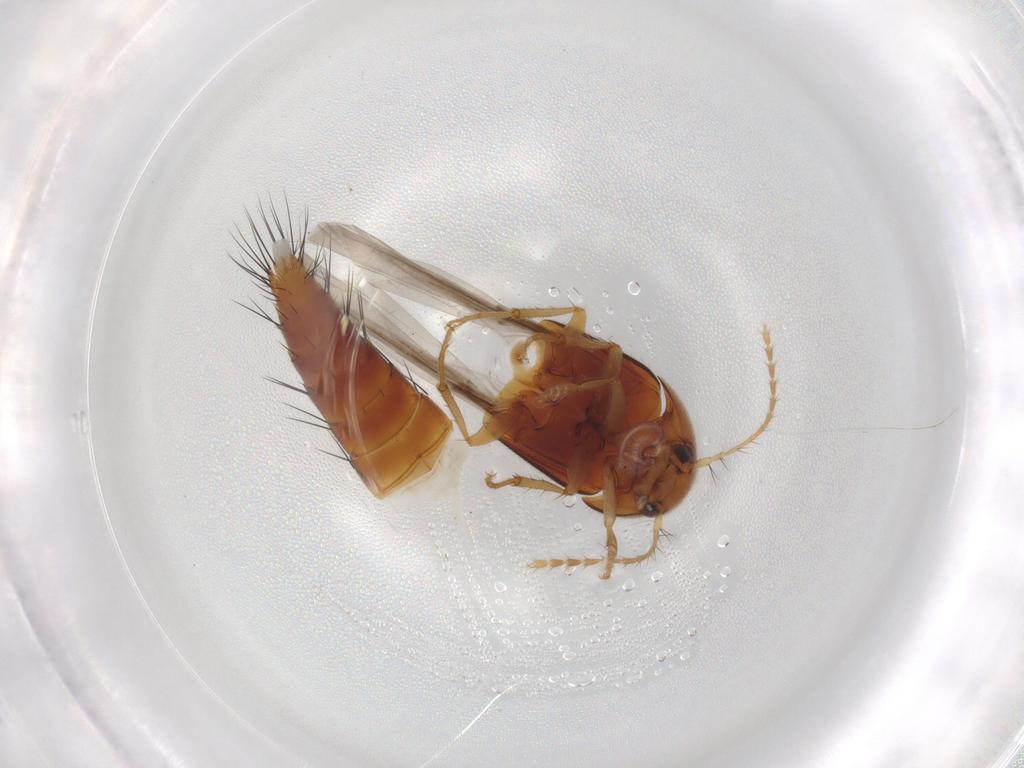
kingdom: Animalia
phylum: Arthropoda
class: Insecta
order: Coleoptera
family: Staphylinidae
